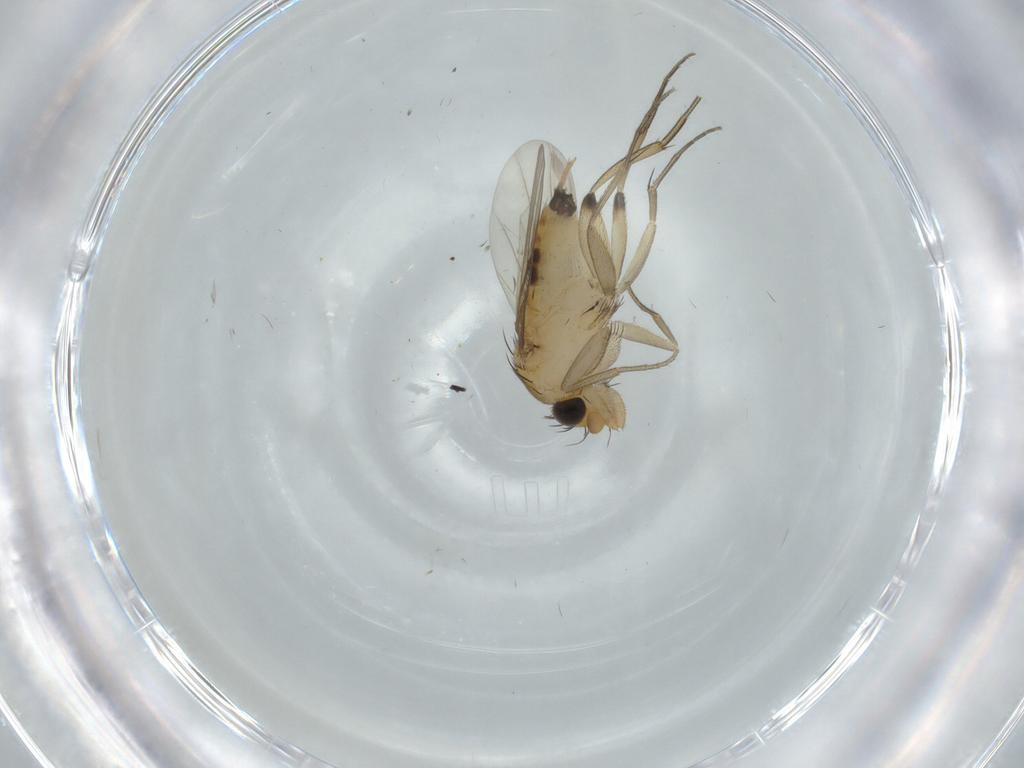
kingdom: Animalia
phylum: Arthropoda
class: Insecta
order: Diptera
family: Phoridae
